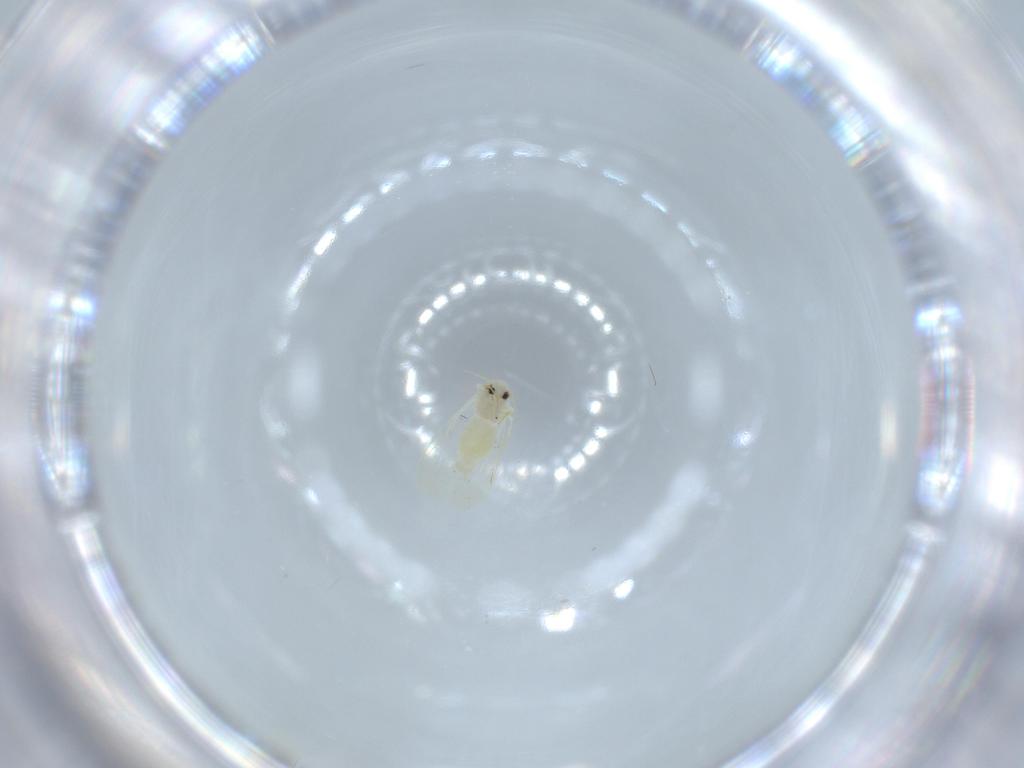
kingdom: Animalia
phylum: Arthropoda
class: Insecta
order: Hemiptera
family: Aleyrodidae
